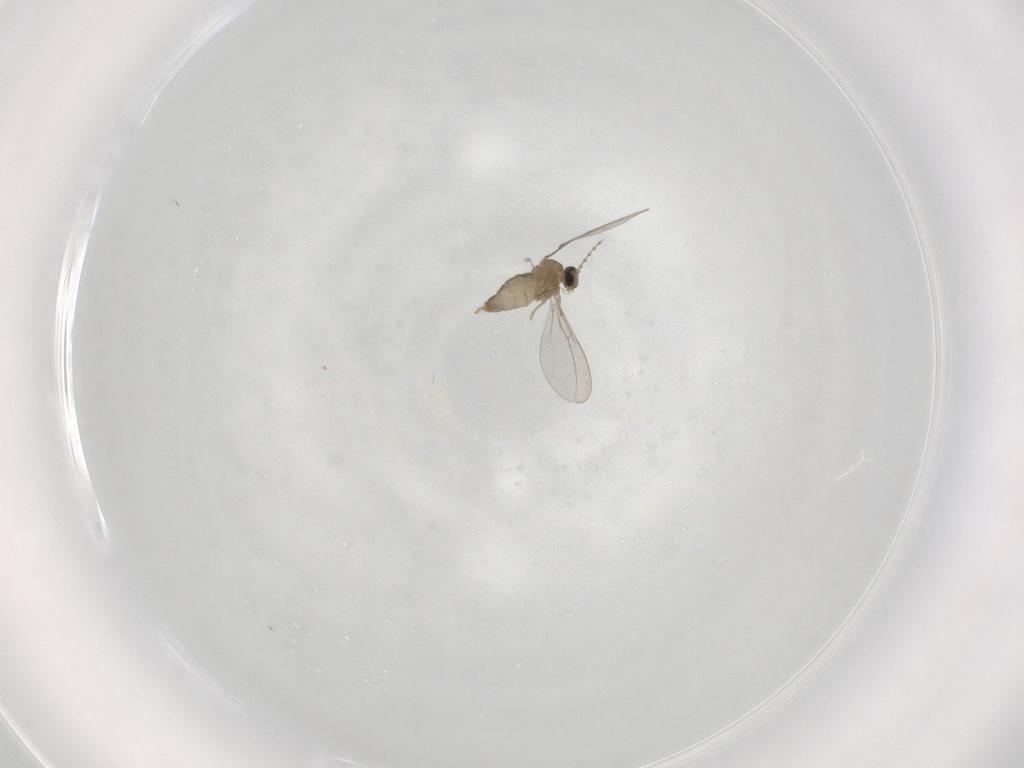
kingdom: Animalia
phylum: Arthropoda
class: Insecta
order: Diptera
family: Cecidomyiidae
